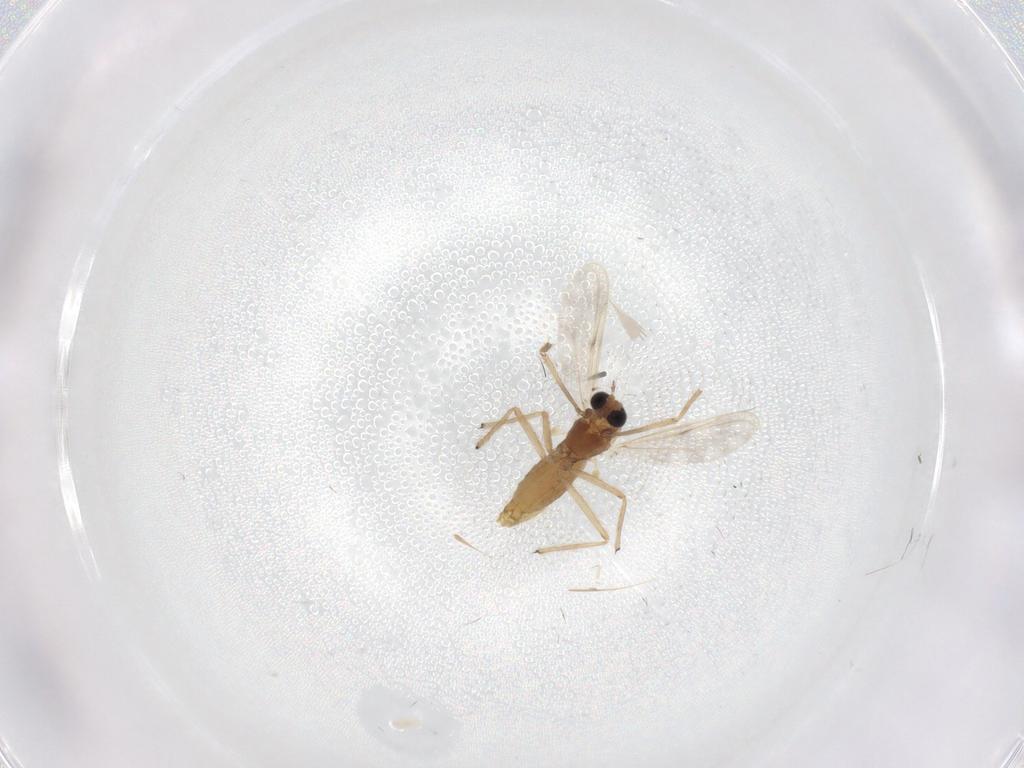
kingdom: Animalia
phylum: Arthropoda
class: Insecta
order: Diptera
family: Chironomidae
